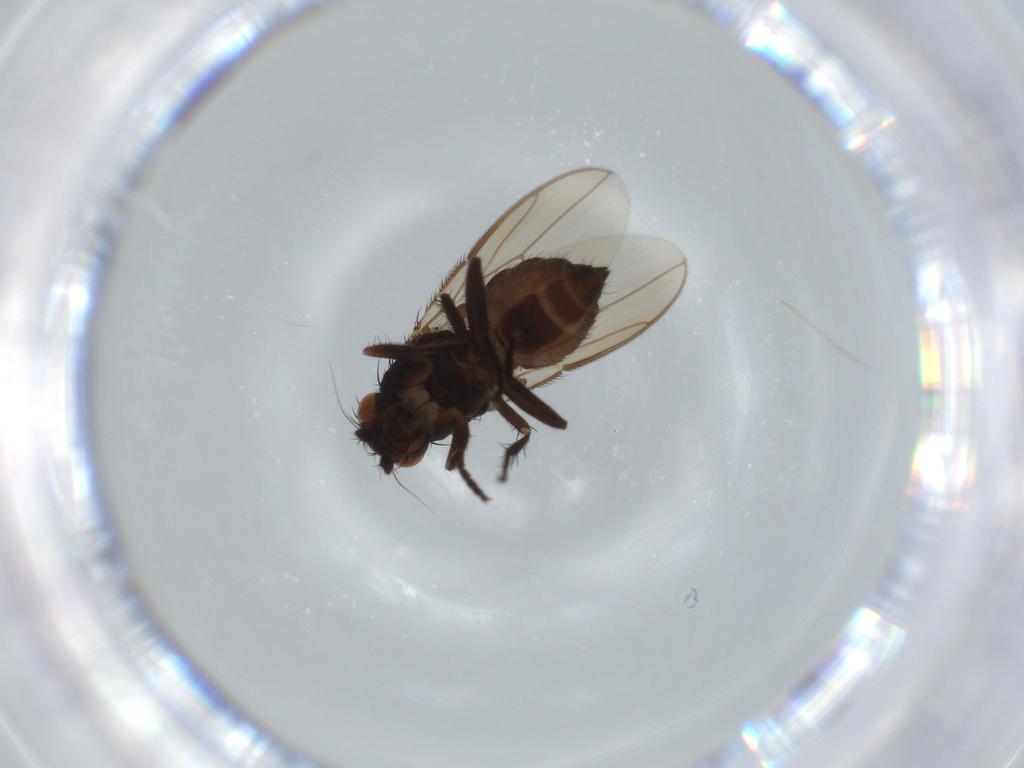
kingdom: Animalia
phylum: Arthropoda
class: Insecta
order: Diptera
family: Sphaeroceridae
